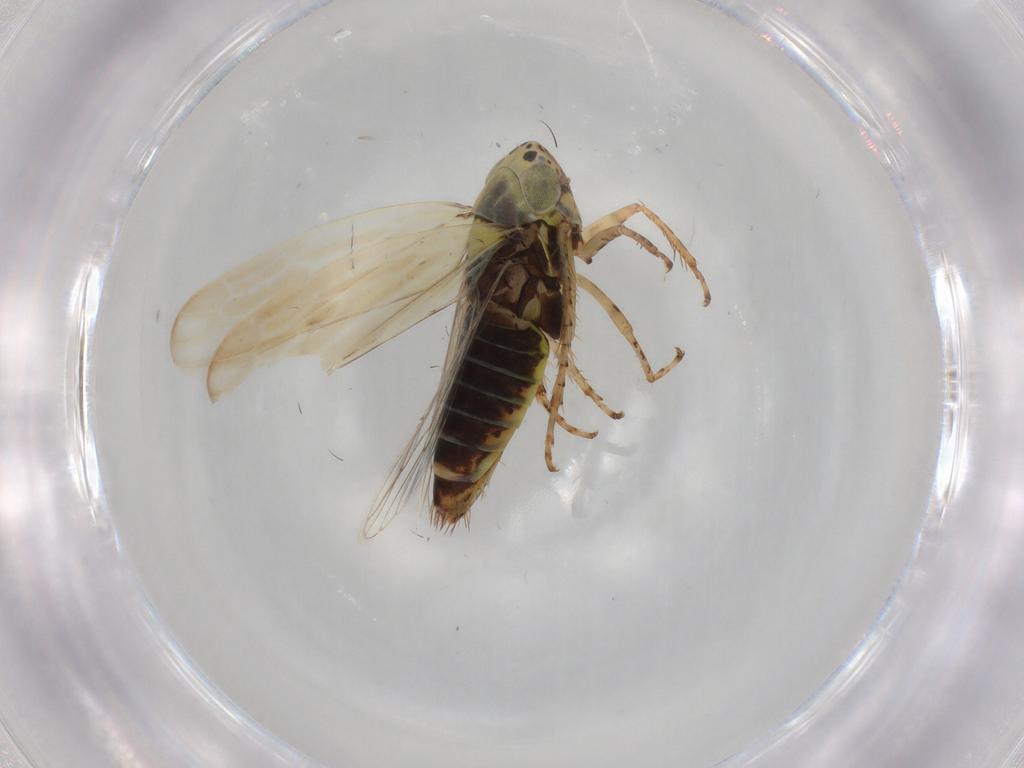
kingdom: Animalia
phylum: Arthropoda
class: Insecta
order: Hemiptera
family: Cicadellidae
